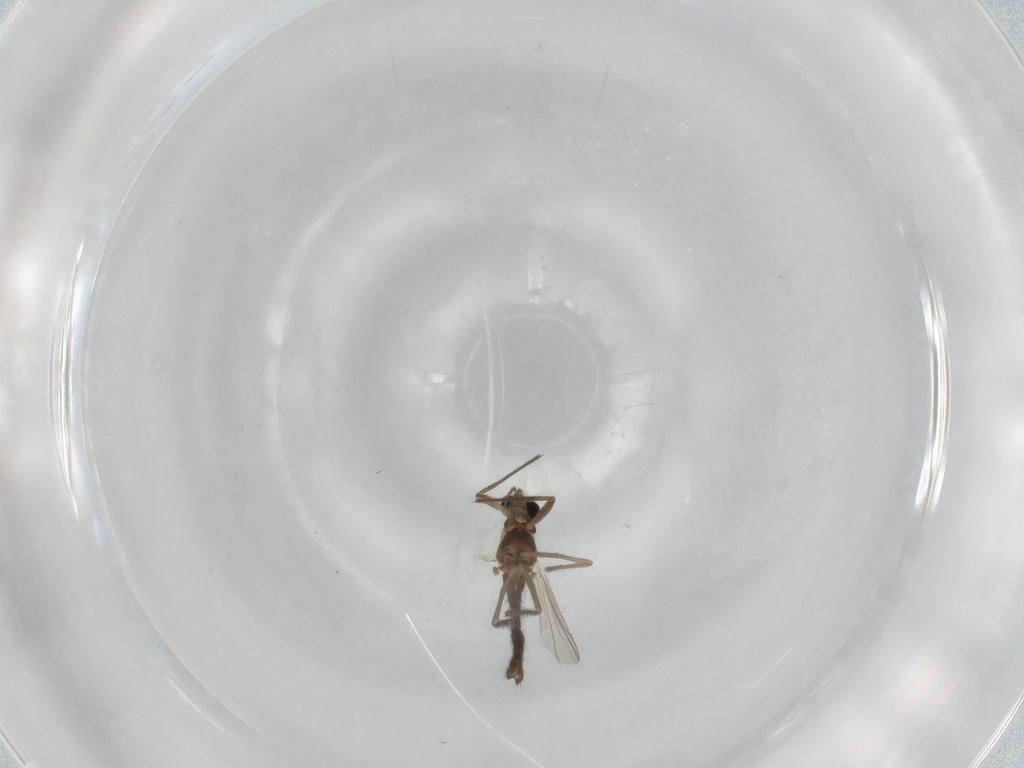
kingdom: Animalia
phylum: Arthropoda
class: Insecta
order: Diptera
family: Chironomidae
